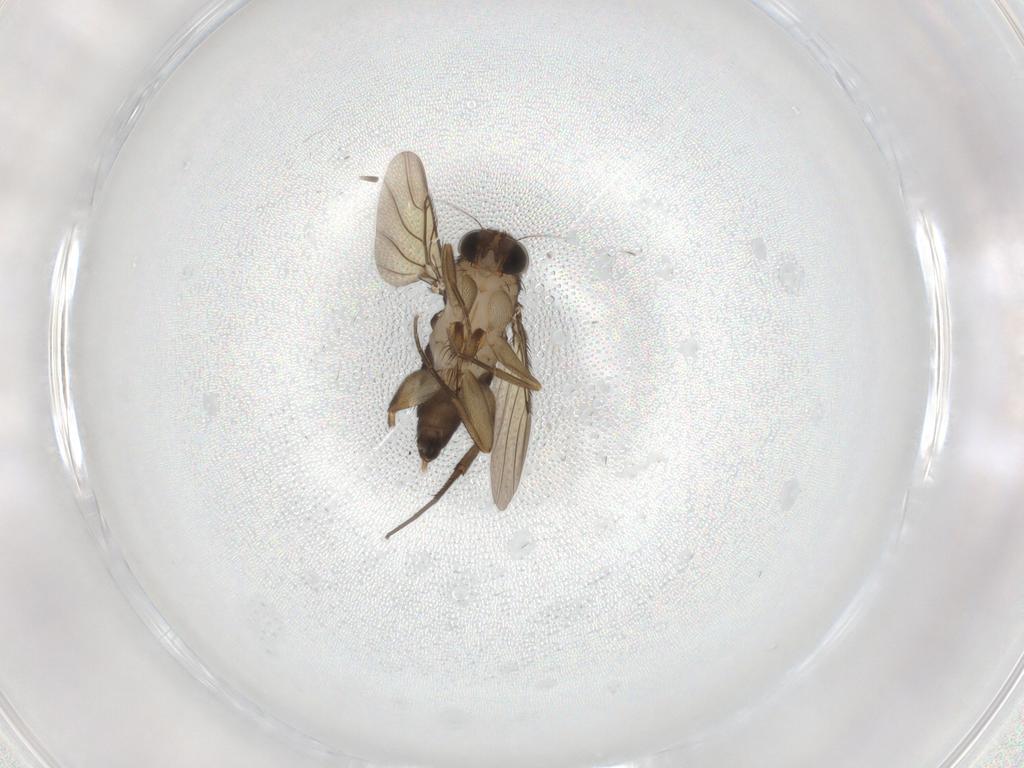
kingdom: Animalia
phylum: Arthropoda
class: Insecta
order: Diptera
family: Phoridae
